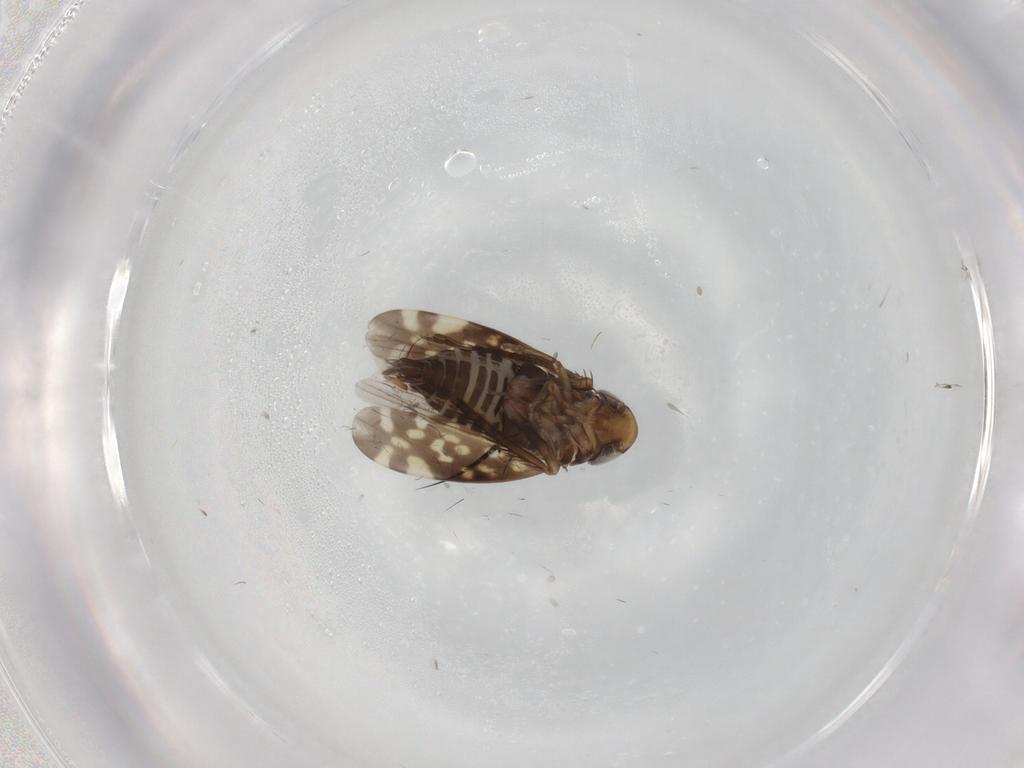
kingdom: Animalia
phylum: Arthropoda
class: Insecta
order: Hemiptera
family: Cicadellidae
